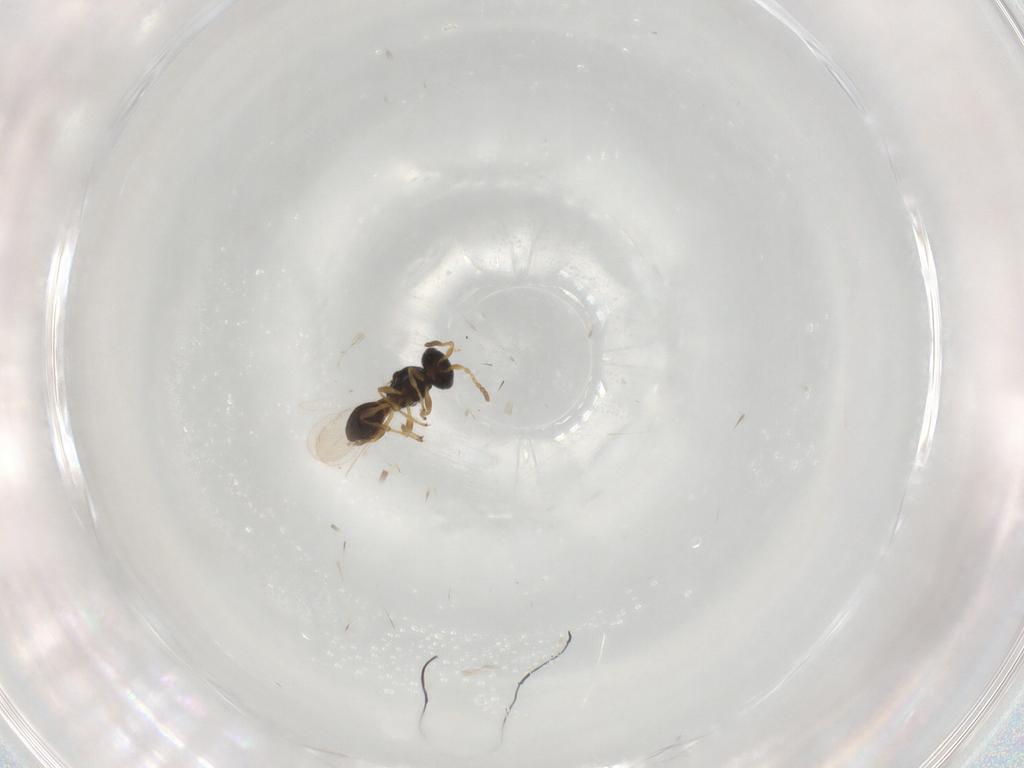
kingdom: Animalia
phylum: Arthropoda
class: Insecta
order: Hymenoptera
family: Platygastridae
